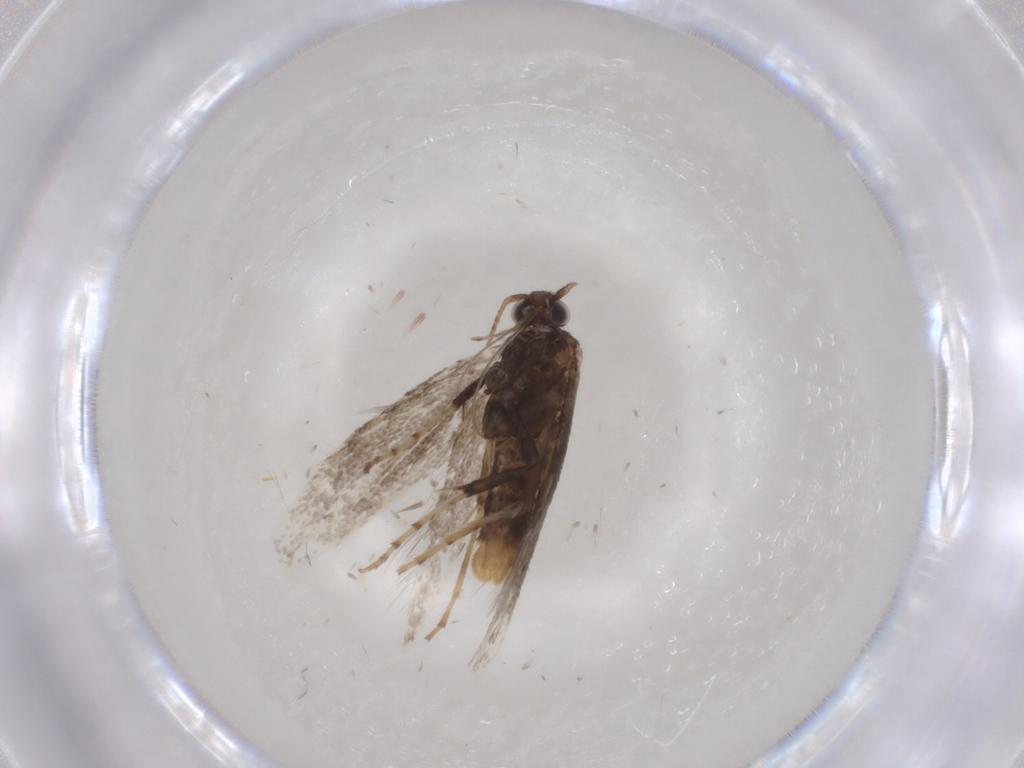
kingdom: Animalia
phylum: Arthropoda
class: Insecta
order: Lepidoptera
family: Gracillariidae
